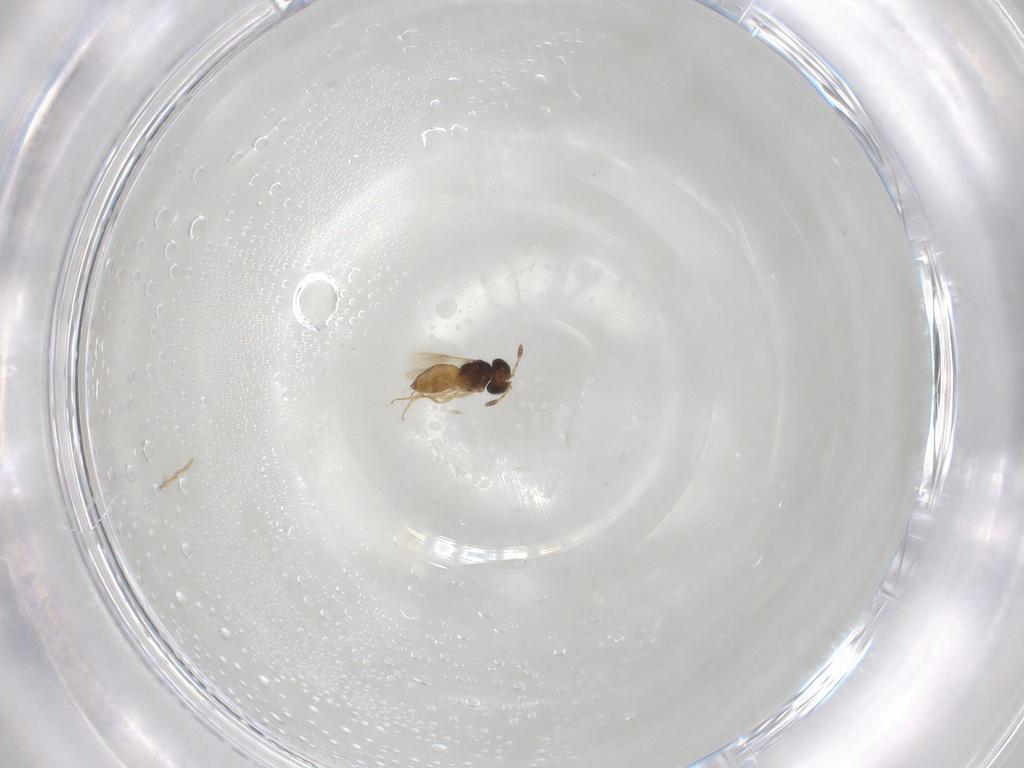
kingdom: Animalia
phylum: Arthropoda
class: Insecta
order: Hymenoptera
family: Scelionidae
